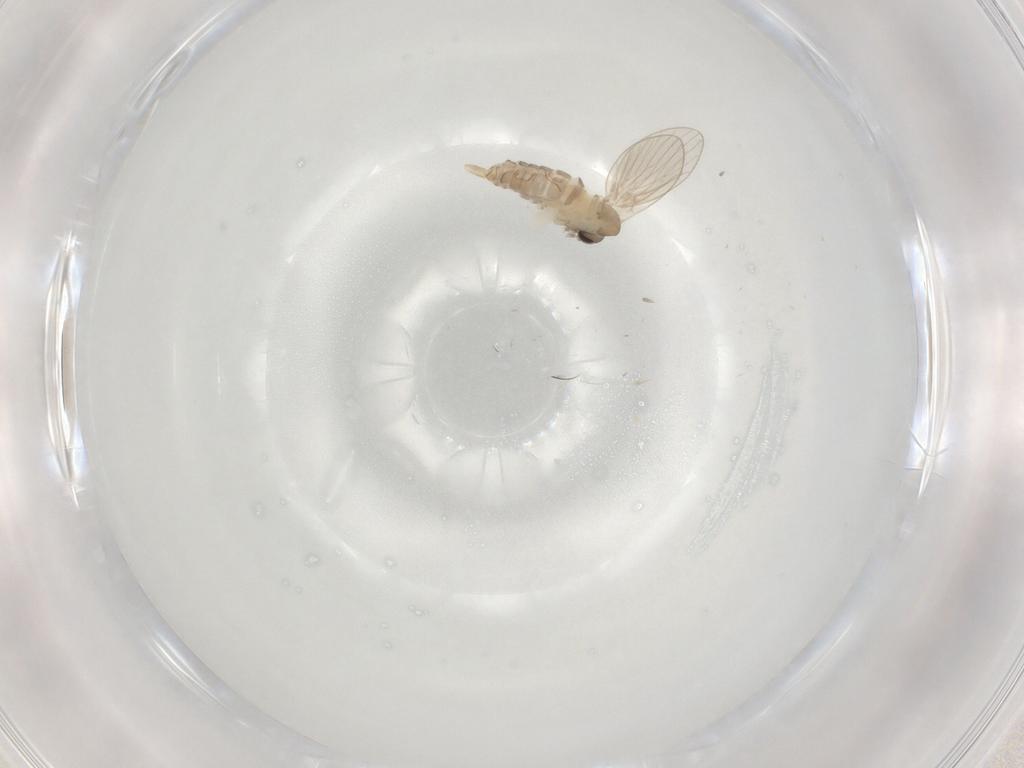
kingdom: Animalia
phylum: Arthropoda
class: Insecta
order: Diptera
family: Psychodidae
